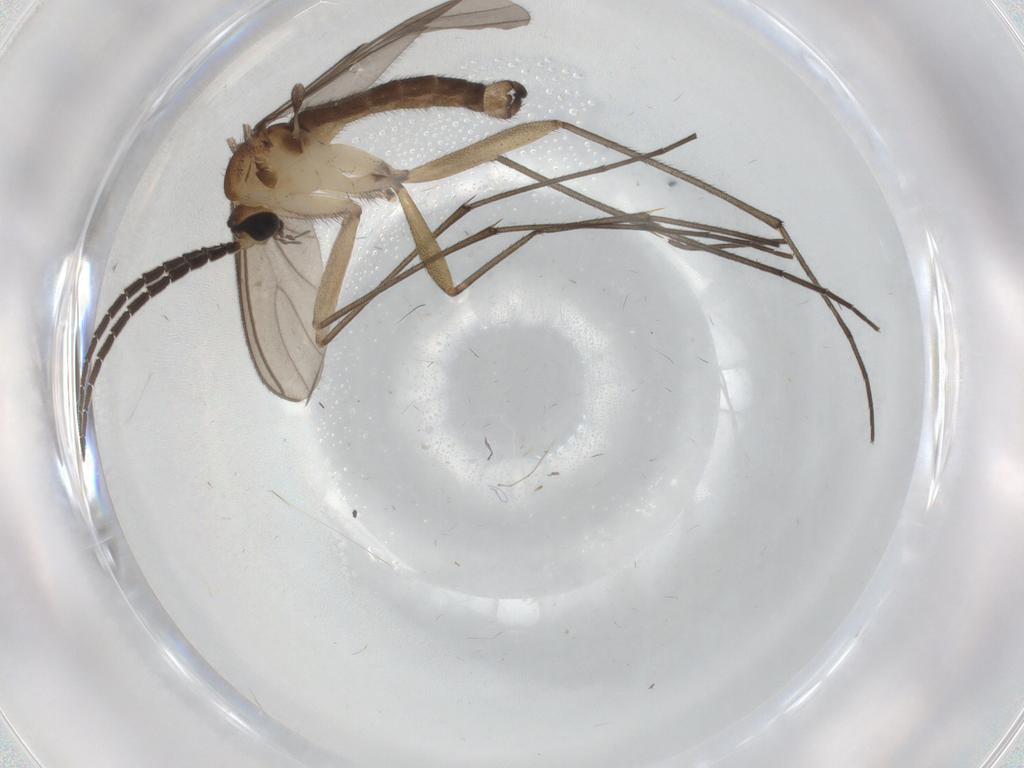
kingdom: Animalia
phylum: Arthropoda
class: Insecta
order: Diptera
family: Sciaridae
